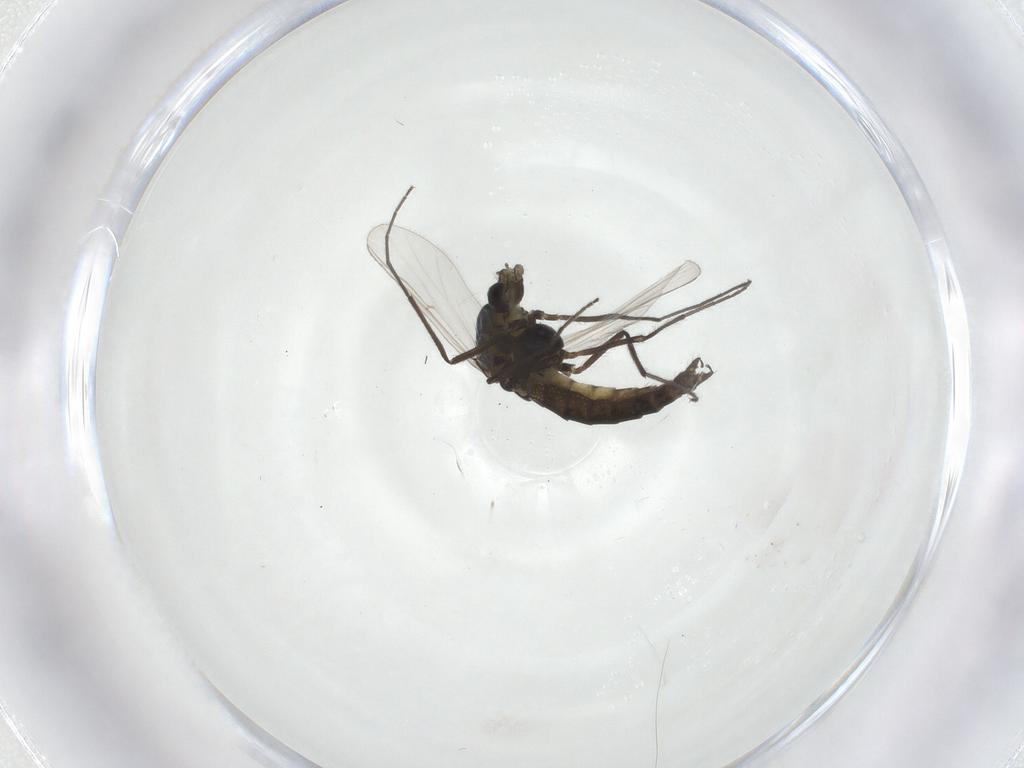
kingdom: Animalia
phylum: Arthropoda
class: Insecta
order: Diptera
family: Chironomidae
